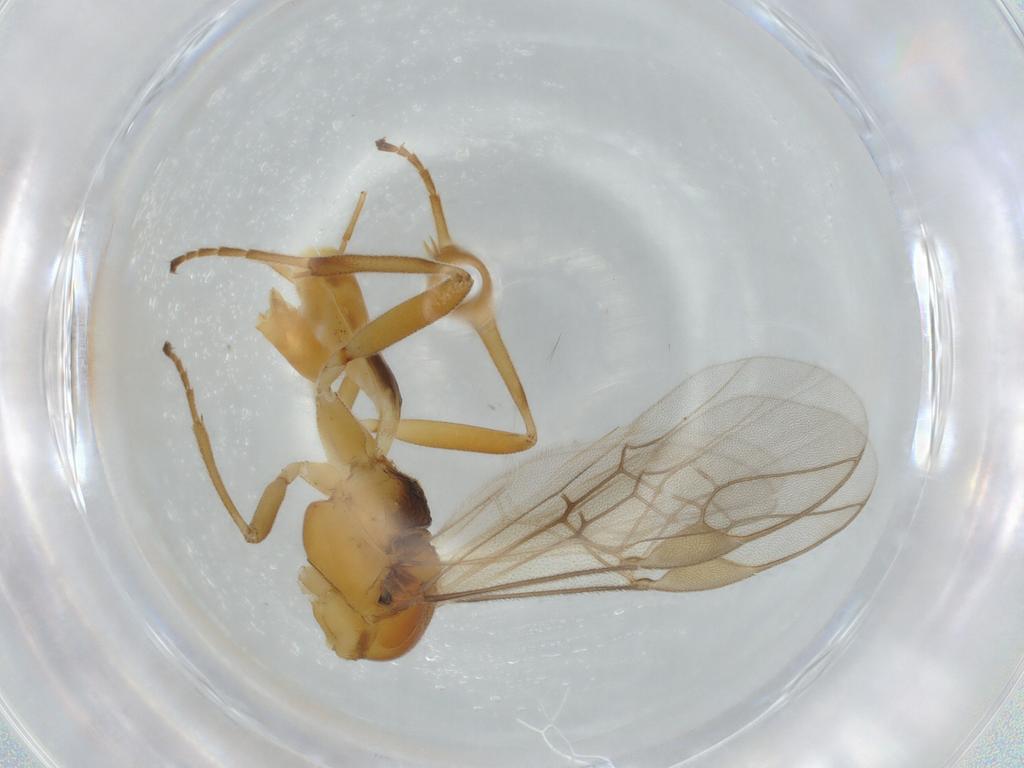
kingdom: Animalia
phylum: Arthropoda
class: Insecta
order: Hymenoptera
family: Braconidae
